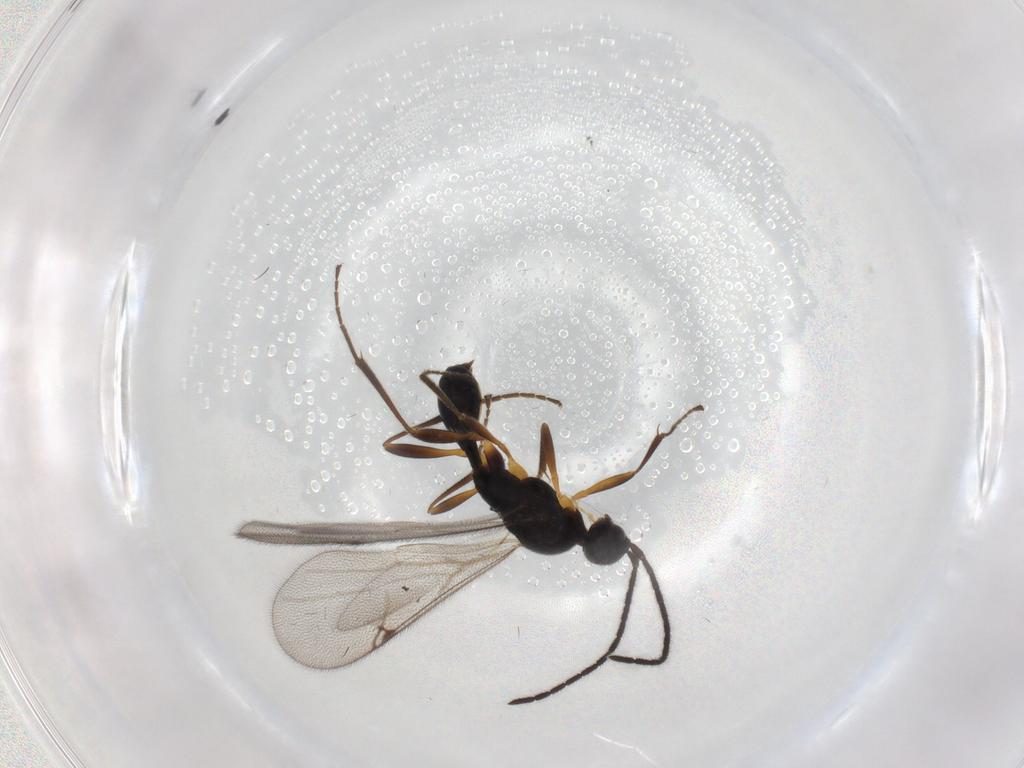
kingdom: Animalia
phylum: Arthropoda
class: Insecta
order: Hymenoptera
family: Proctotrupidae
